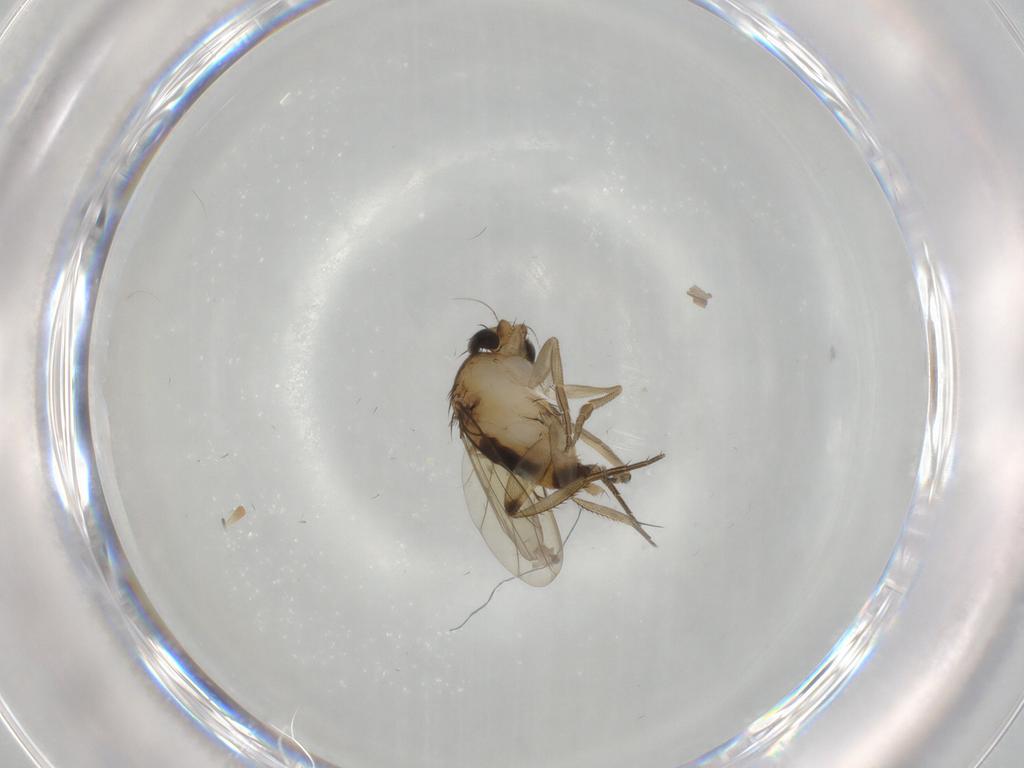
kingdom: Animalia
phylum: Arthropoda
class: Insecta
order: Diptera
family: Phoridae
